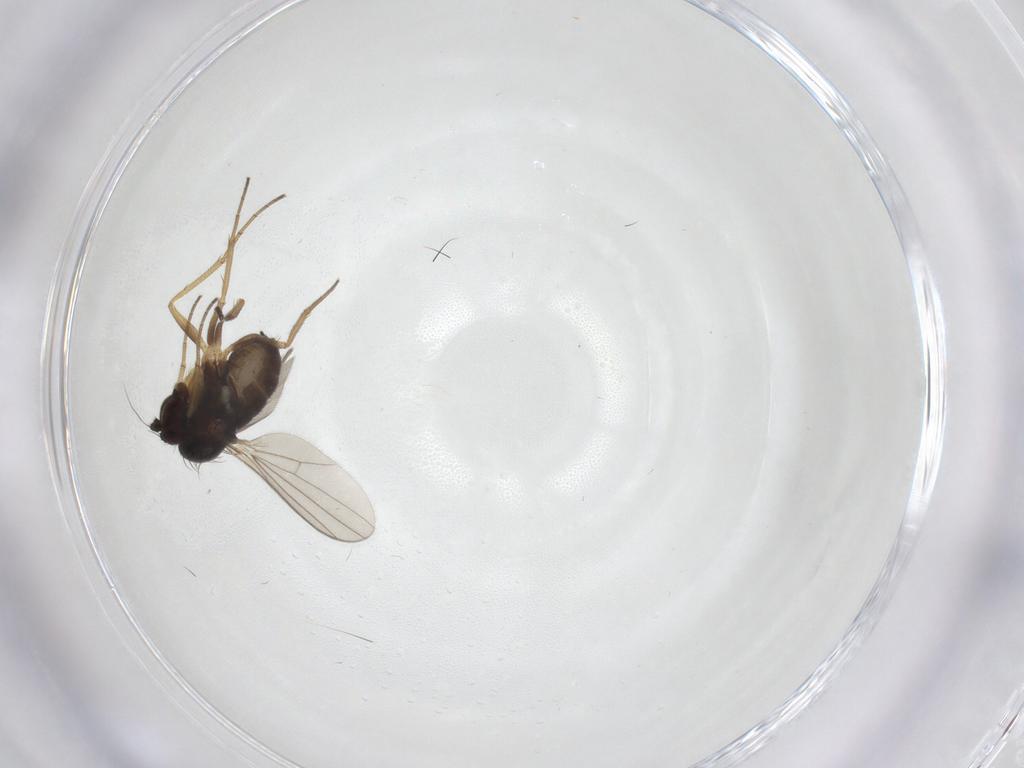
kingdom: Animalia
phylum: Arthropoda
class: Insecta
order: Diptera
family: Dolichopodidae
